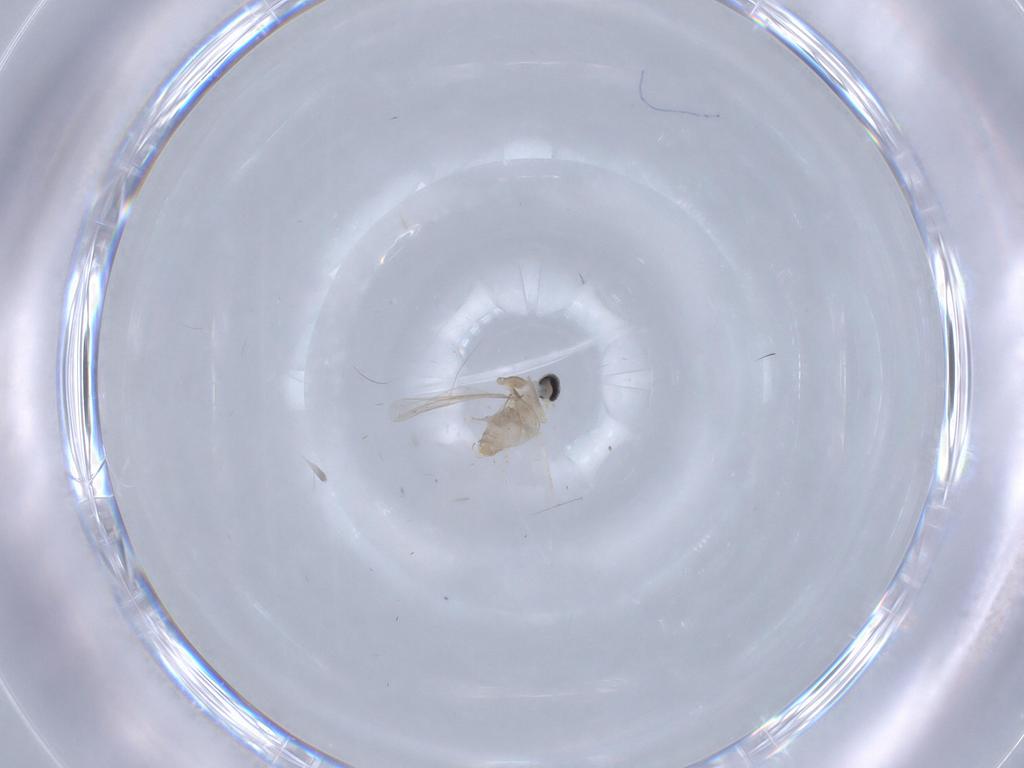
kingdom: Animalia
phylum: Arthropoda
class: Insecta
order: Diptera
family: Cecidomyiidae
